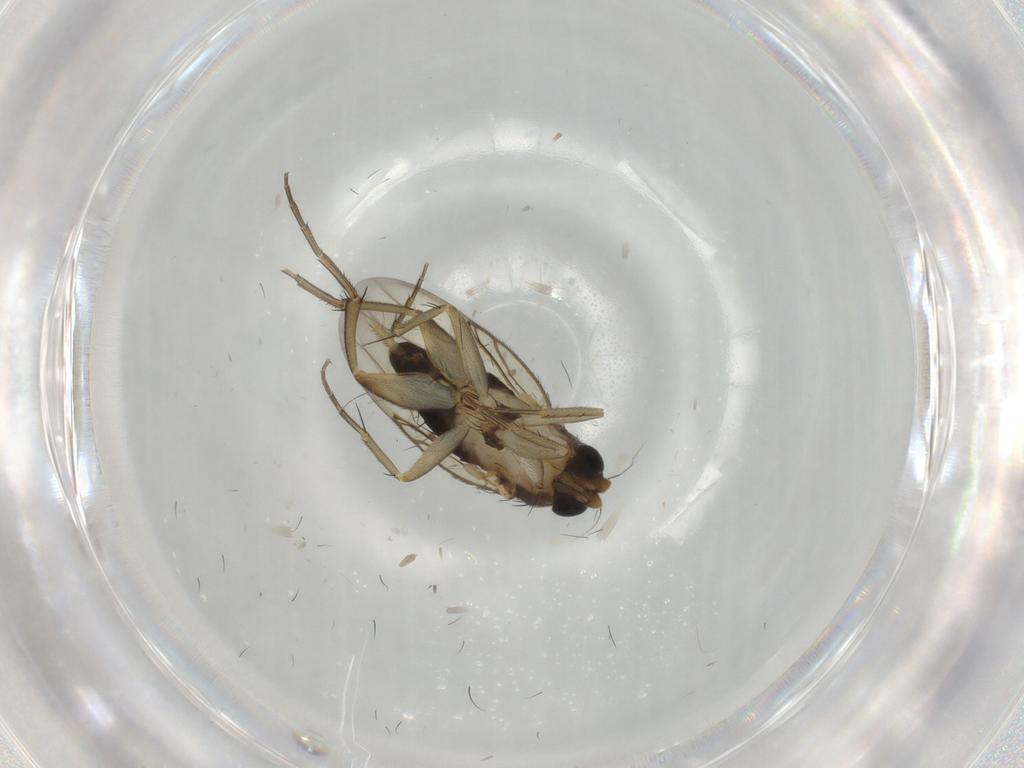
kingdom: Animalia
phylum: Arthropoda
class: Insecta
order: Diptera
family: Phoridae
